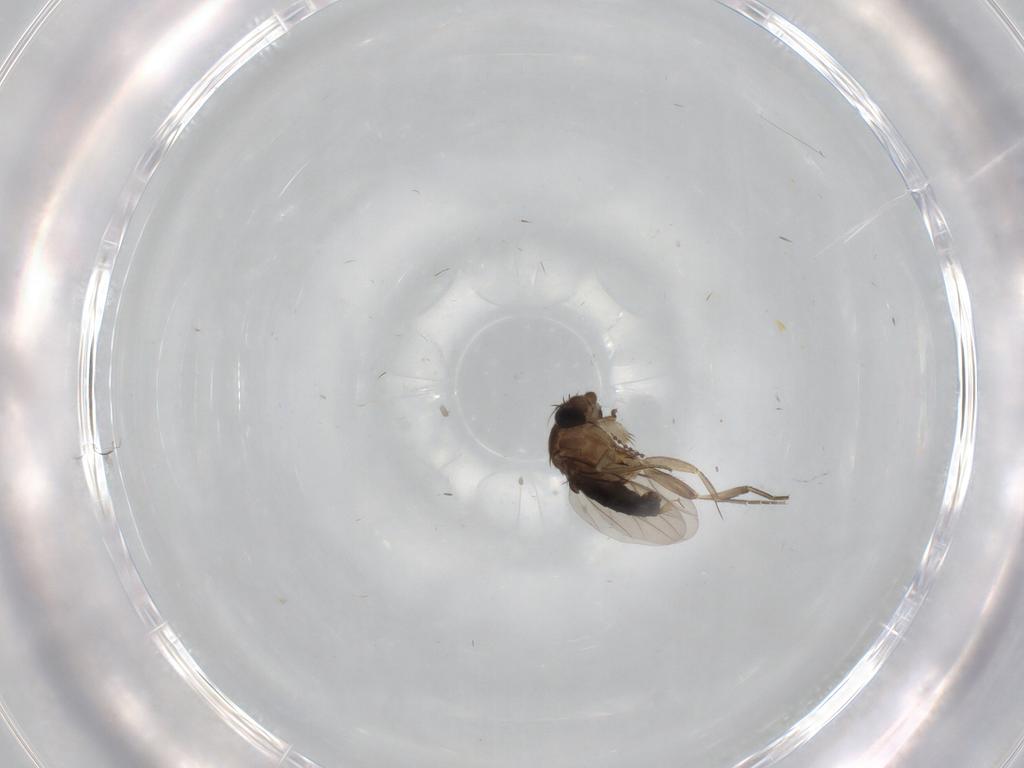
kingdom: Animalia
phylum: Arthropoda
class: Insecta
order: Diptera
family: Phoridae
